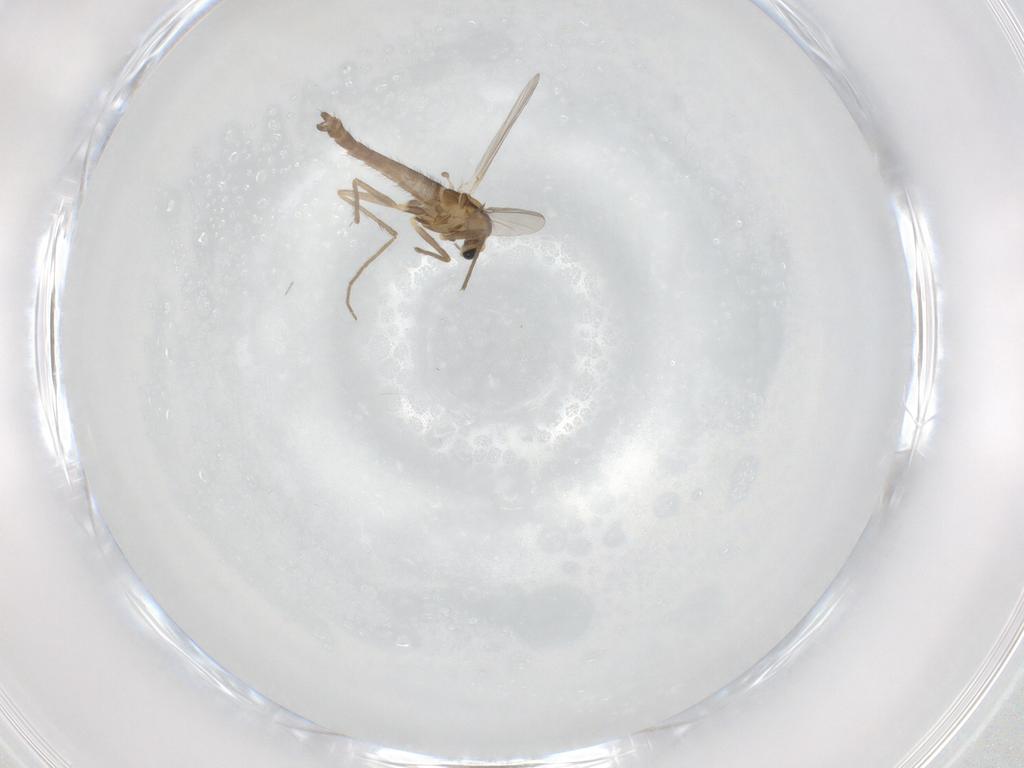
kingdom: Animalia
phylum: Arthropoda
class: Insecta
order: Diptera
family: Chironomidae
